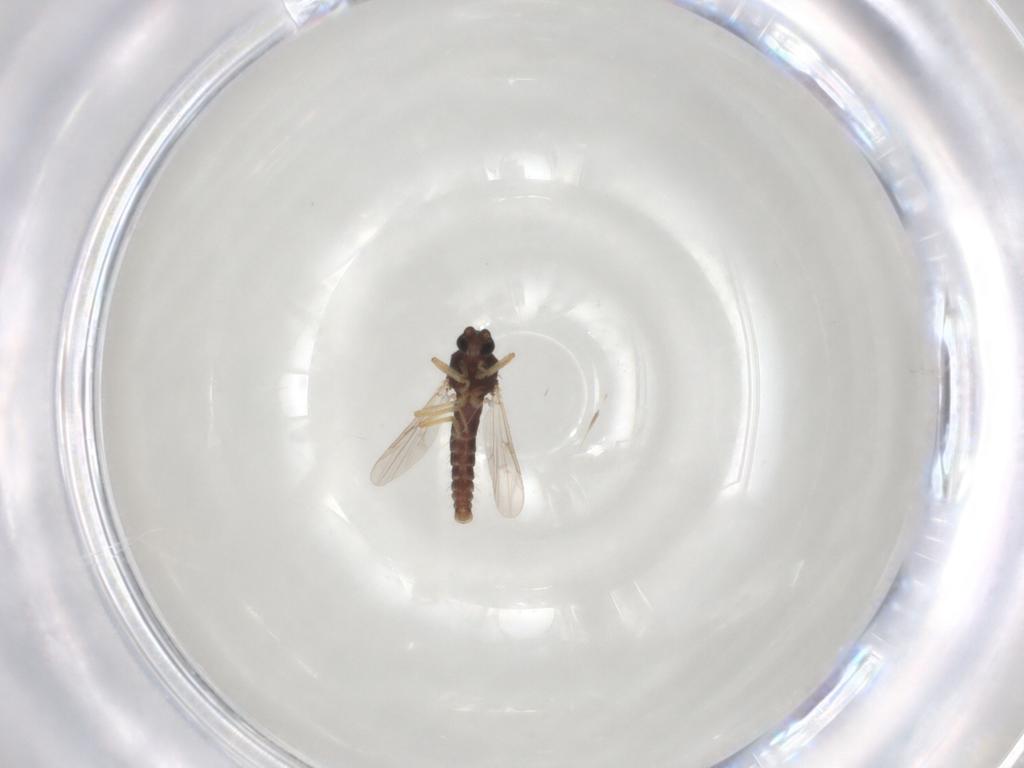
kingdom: Animalia
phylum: Arthropoda
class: Insecta
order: Diptera
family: Ceratopogonidae
